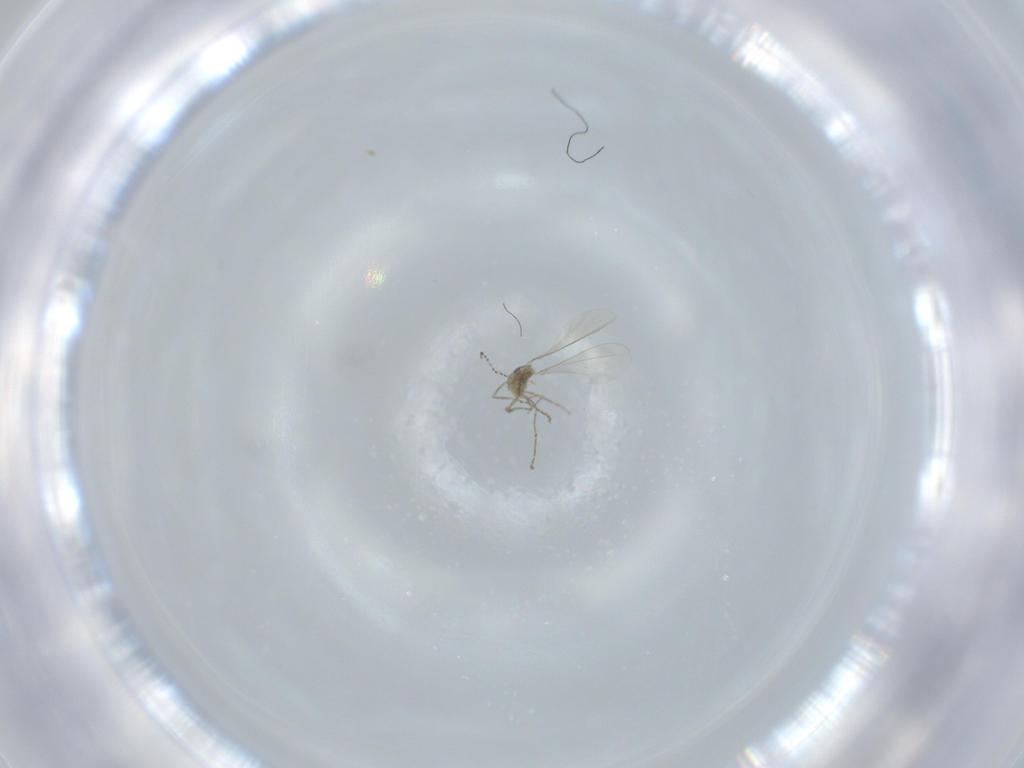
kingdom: Animalia
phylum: Arthropoda
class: Insecta
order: Diptera
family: Cecidomyiidae
